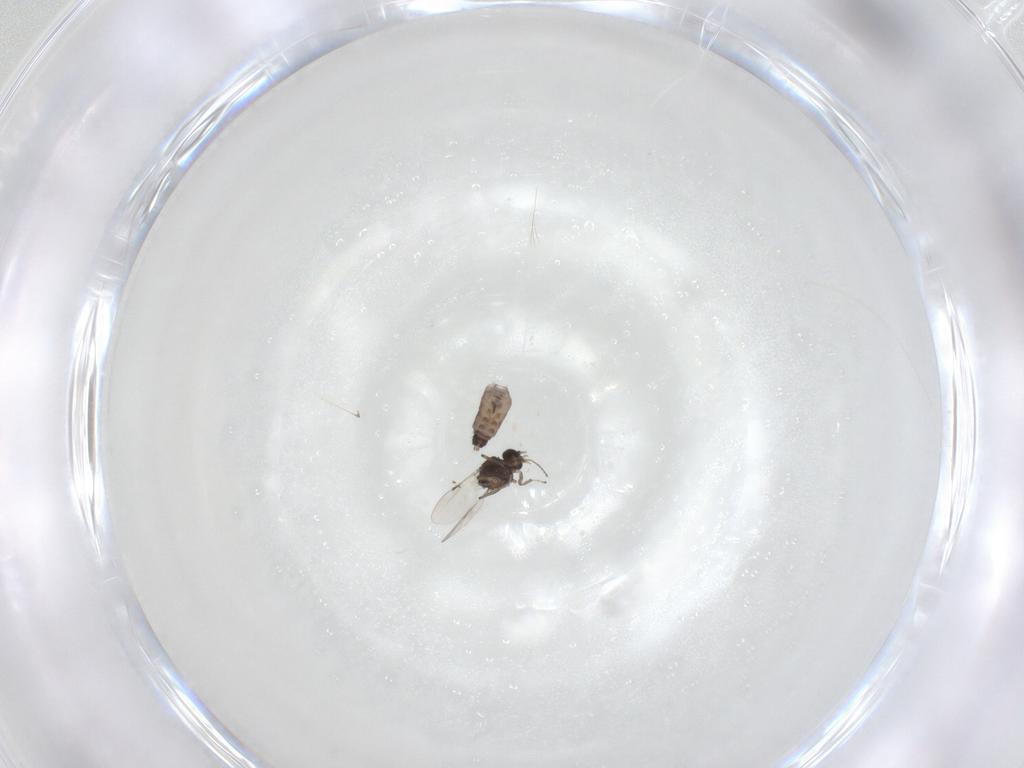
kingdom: Animalia
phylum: Arthropoda
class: Insecta
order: Diptera
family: Ceratopogonidae
